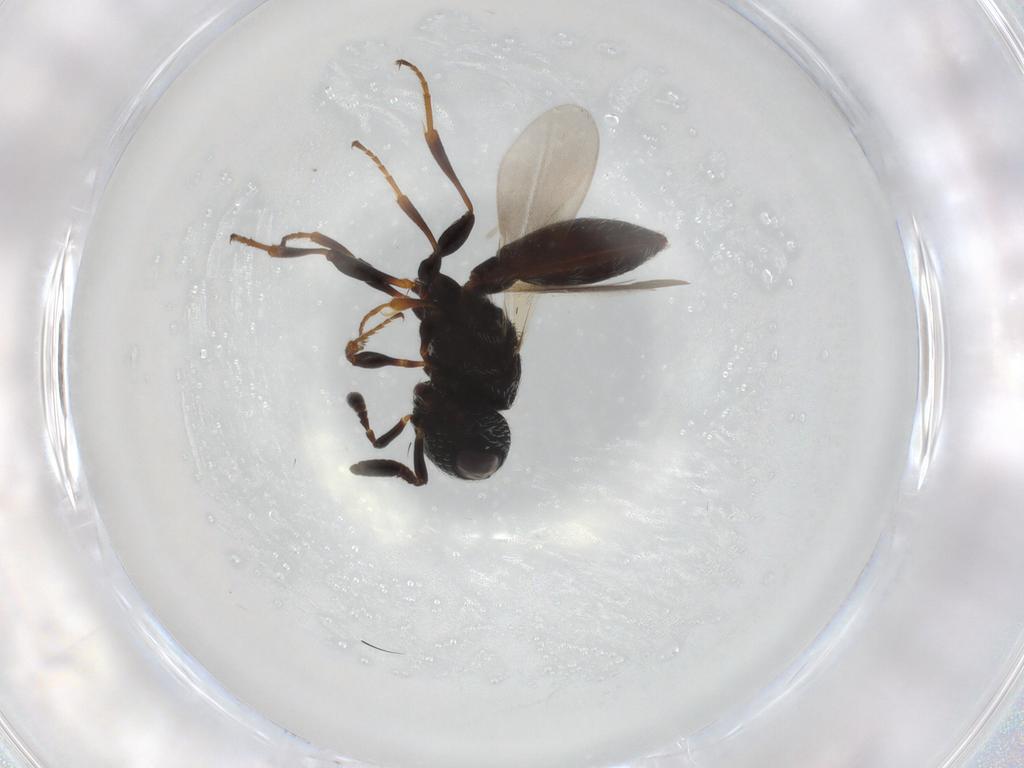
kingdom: Animalia
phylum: Arthropoda
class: Insecta
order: Hymenoptera
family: Scelionidae
